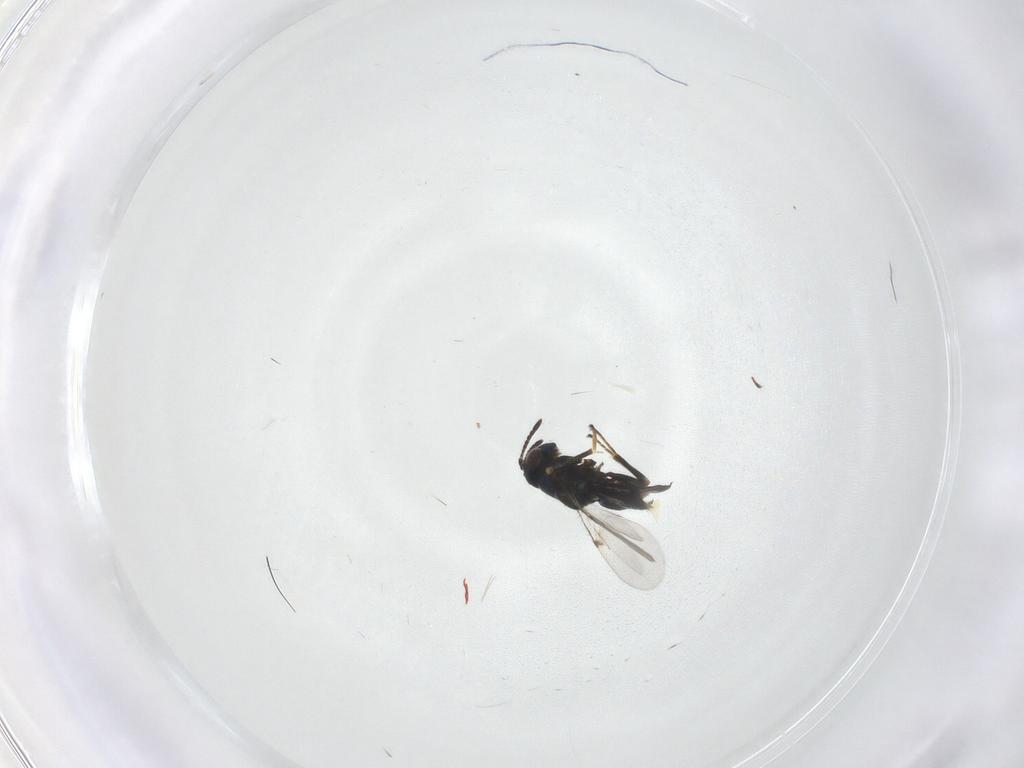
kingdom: Animalia
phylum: Arthropoda
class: Insecta
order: Hymenoptera
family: Encyrtidae
